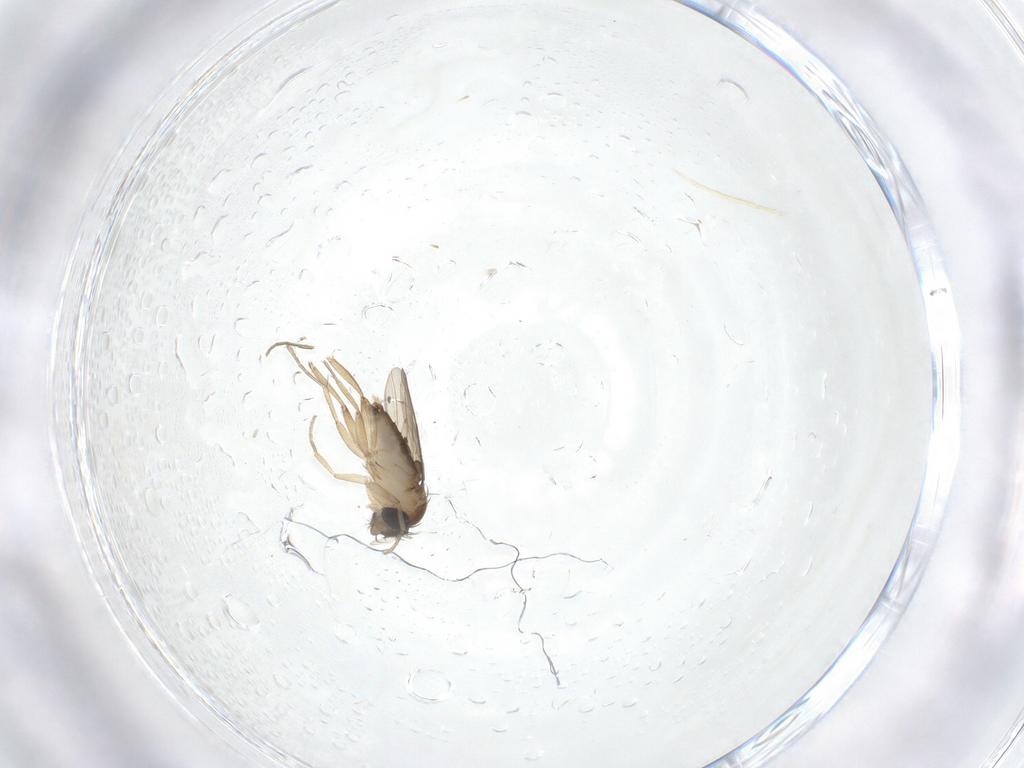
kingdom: Animalia
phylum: Arthropoda
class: Insecta
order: Diptera
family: Phoridae
